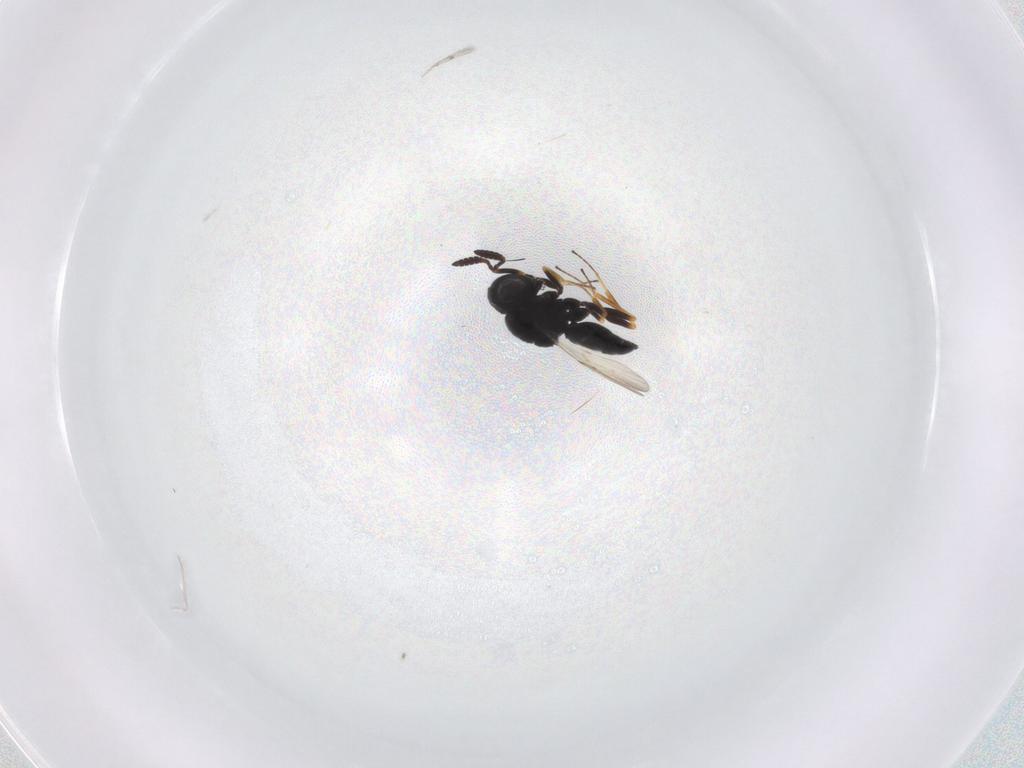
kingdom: Animalia
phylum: Arthropoda
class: Insecta
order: Hymenoptera
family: Scelionidae
